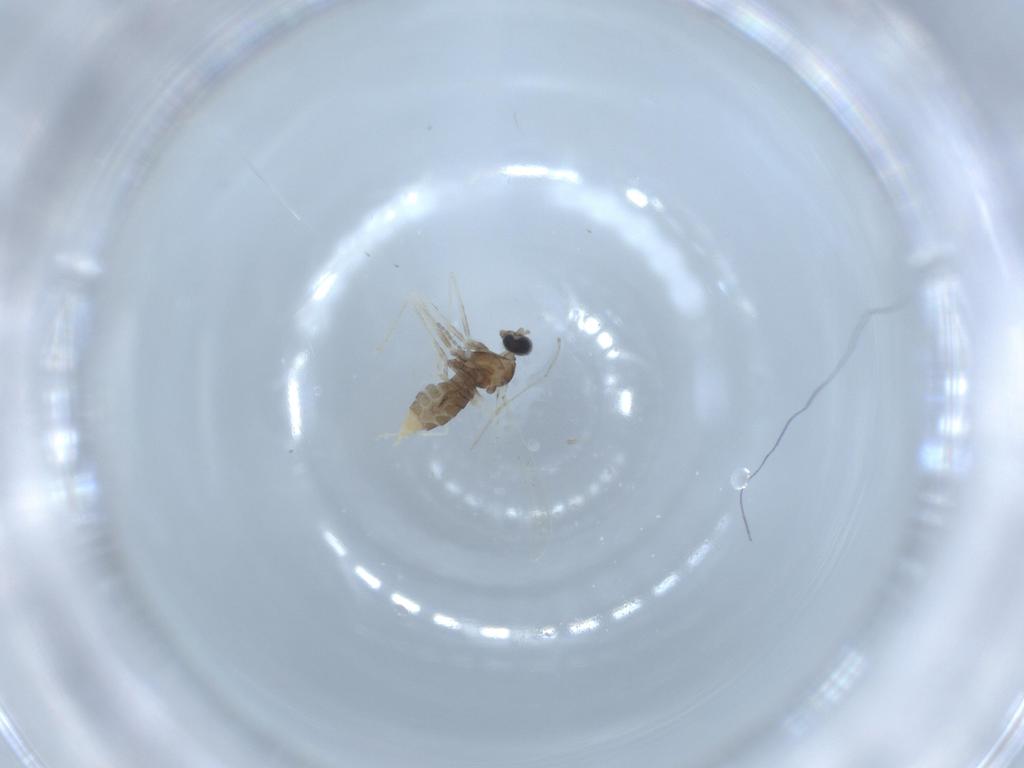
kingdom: Animalia
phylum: Arthropoda
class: Insecta
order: Diptera
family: Cecidomyiidae
